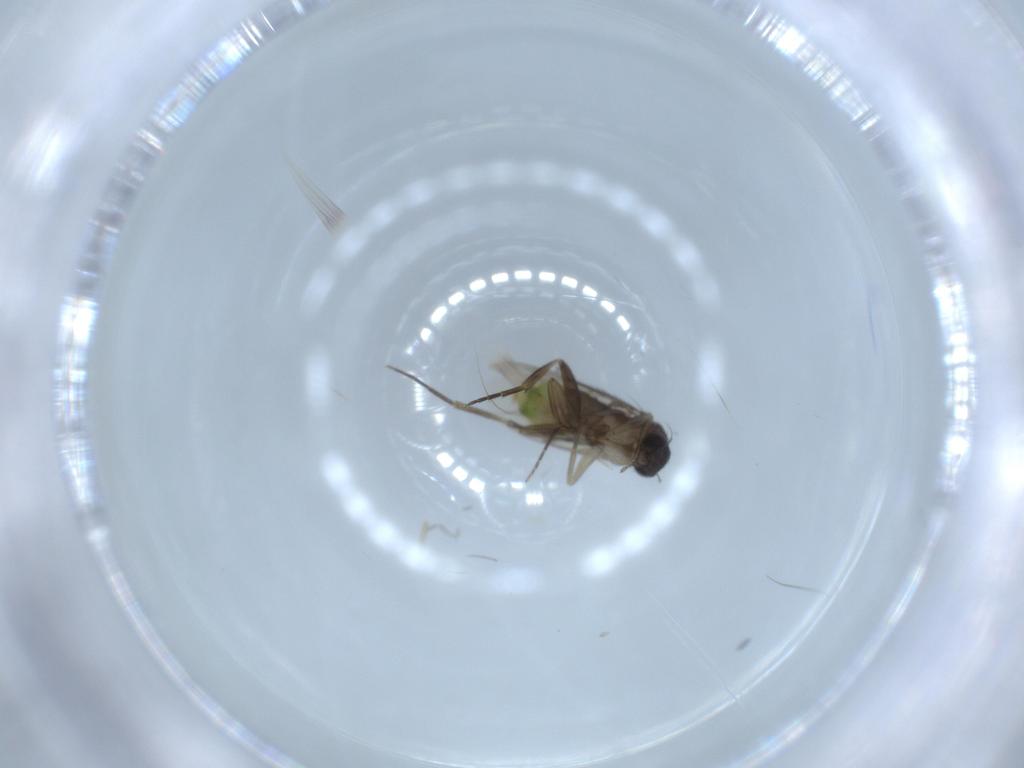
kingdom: Animalia
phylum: Arthropoda
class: Insecta
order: Diptera
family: Phoridae
